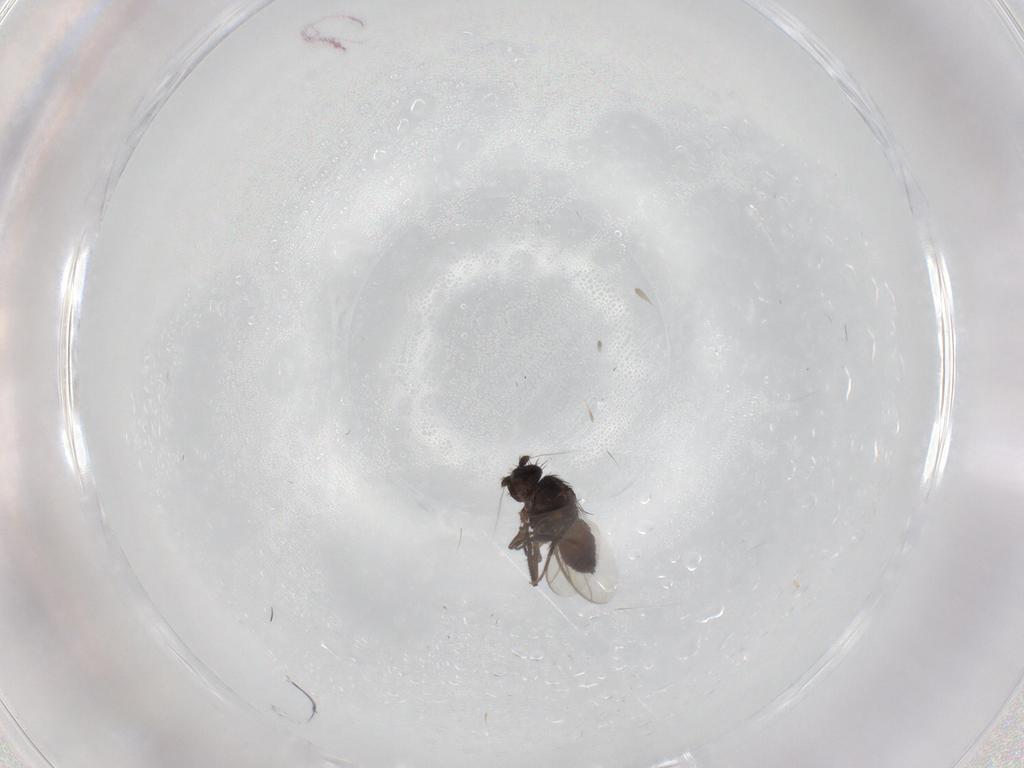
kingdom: Animalia
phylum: Arthropoda
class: Insecta
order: Diptera
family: Sphaeroceridae
